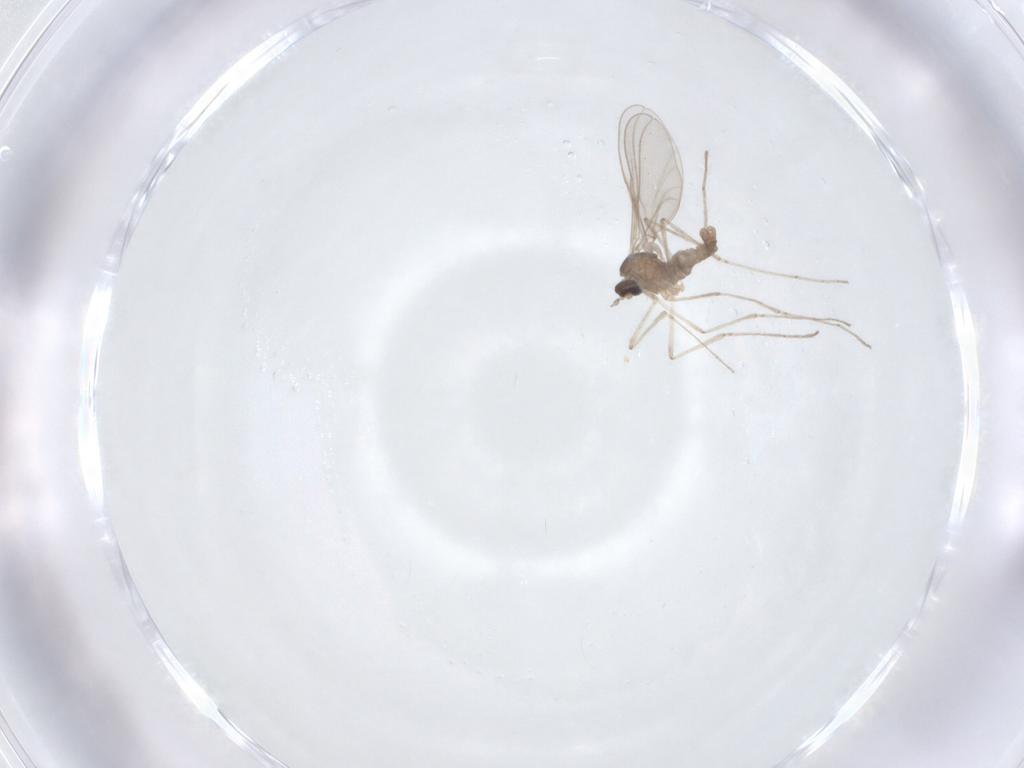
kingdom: Animalia
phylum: Arthropoda
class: Insecta
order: Diptera
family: Cecidomyiidae
